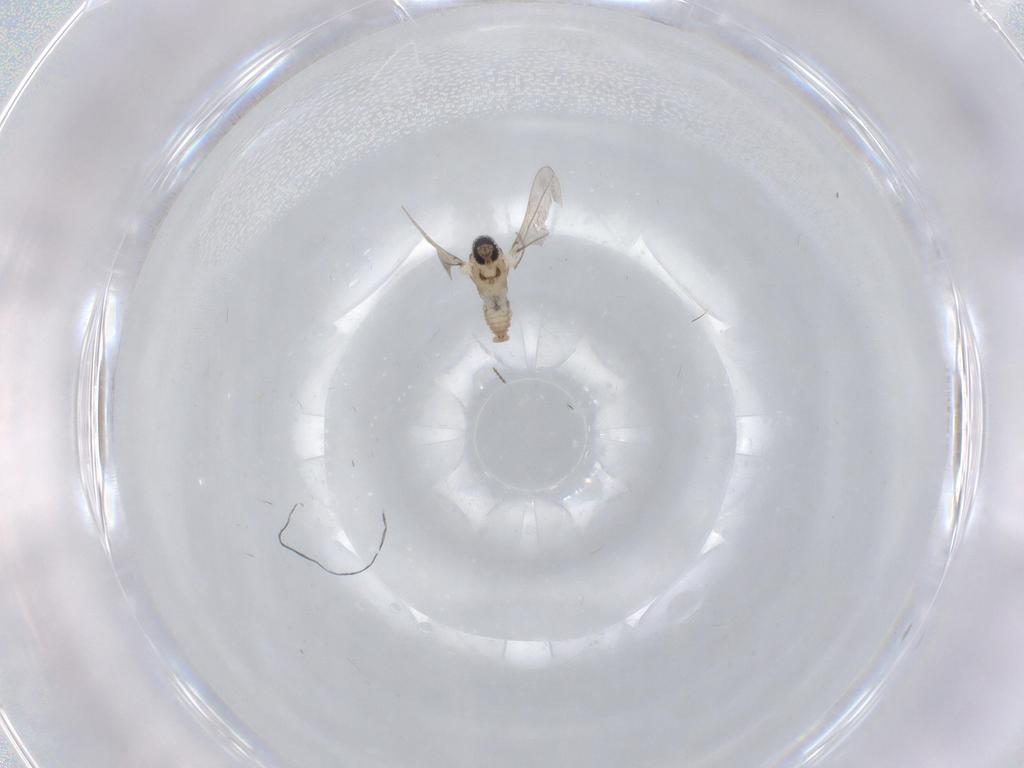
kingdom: Animalia
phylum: Arthropoda
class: Insecta
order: Diptera
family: Cecidomyiidae
